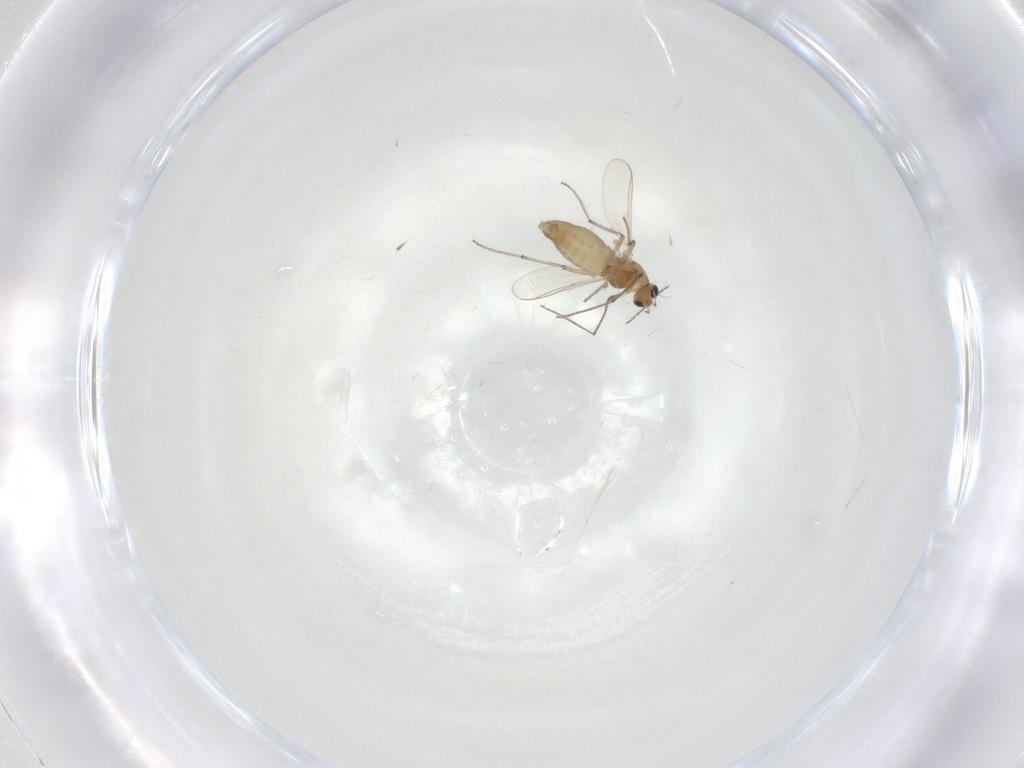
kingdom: Animalia
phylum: Arthropoda
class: Insecta
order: Diptera
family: Chironomidae
